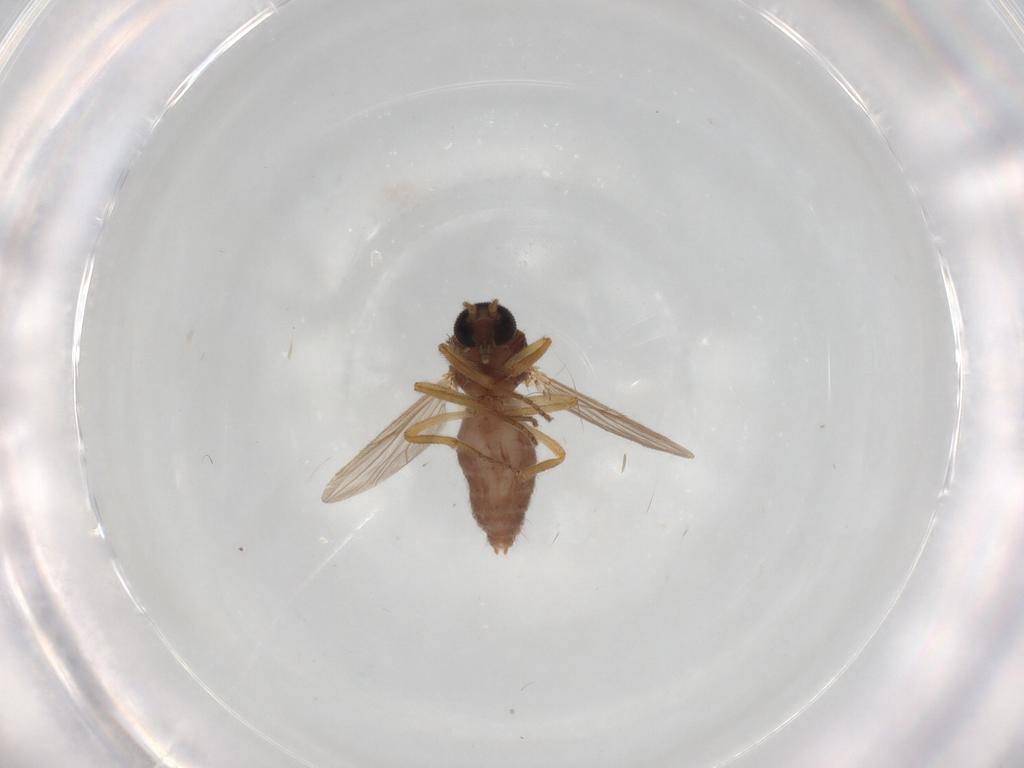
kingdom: Animalia
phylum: Arthropoda
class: Insecta
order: Diptera
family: Ceratopogonidae
